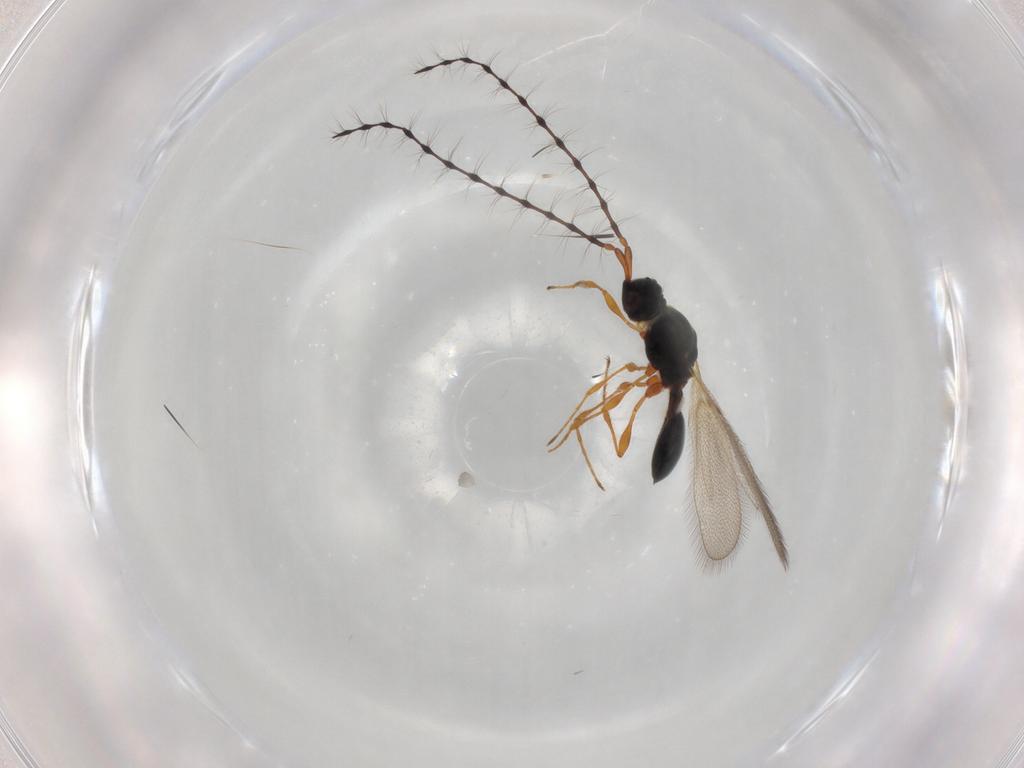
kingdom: Animalia
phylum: Arthropoda
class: Insecta
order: Hymenoptera
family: Diapriidae
